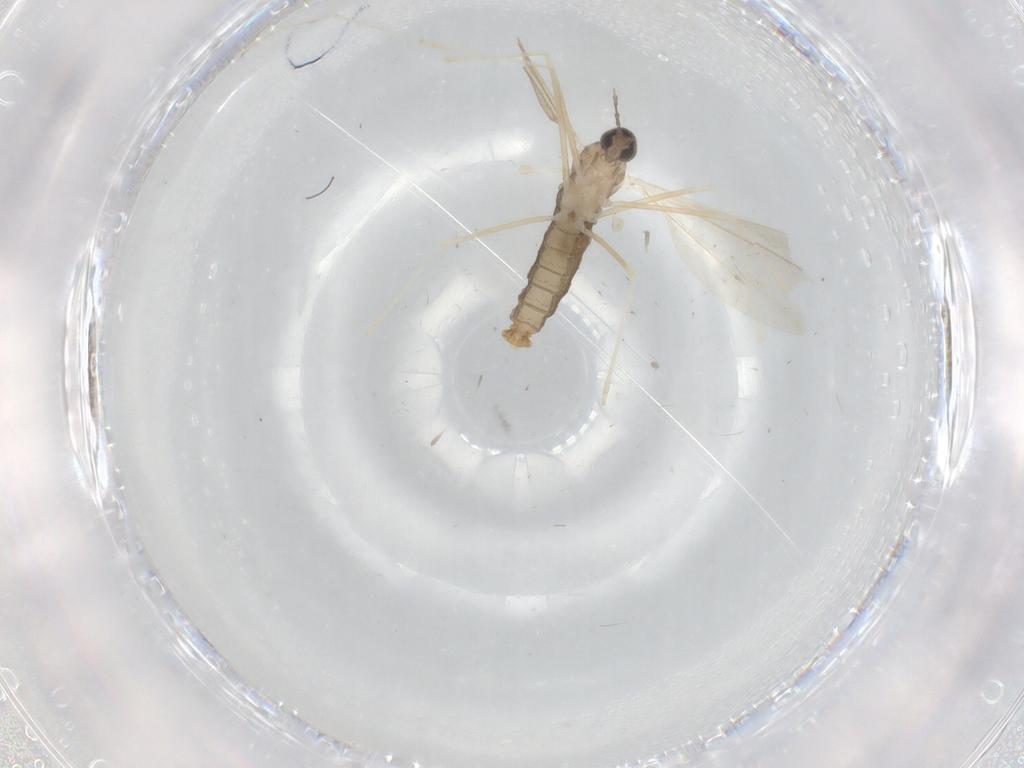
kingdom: Animalia
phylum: Arthropoda
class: Insecta
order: Diptera
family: Cecidomyiidae
